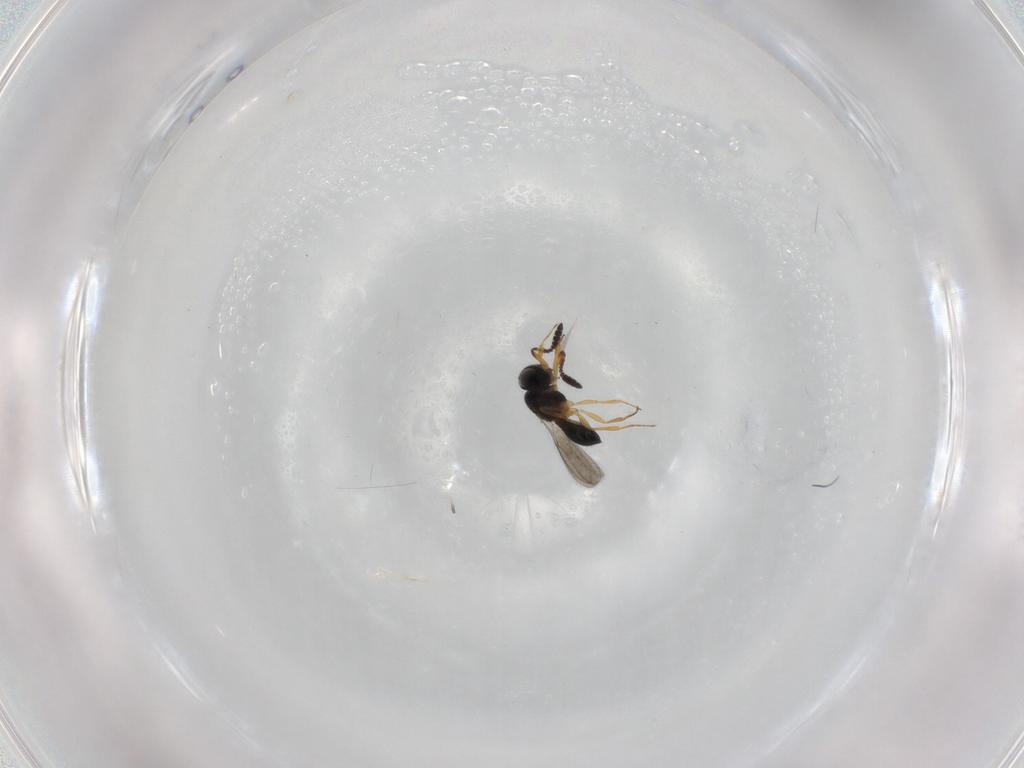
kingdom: Animalia
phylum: Arthropoda
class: Insecta
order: Hymenoptera
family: Scelionidae
